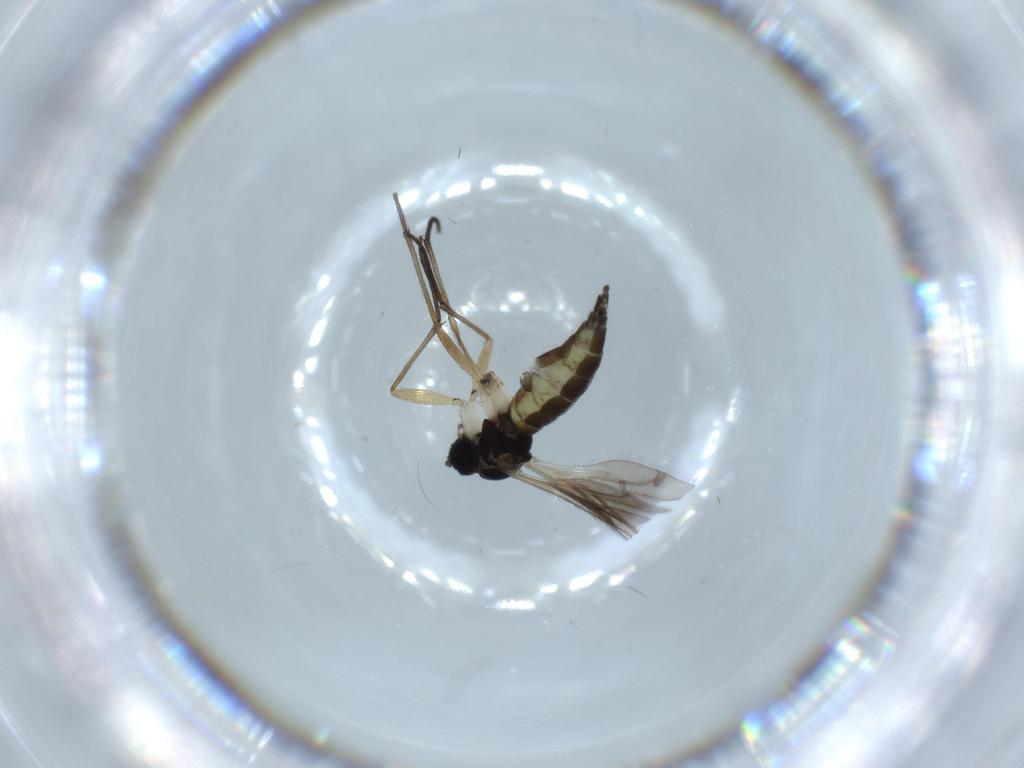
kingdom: Animalia
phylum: Arthropoda
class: Insecta
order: Diptera
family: Sciaridae
